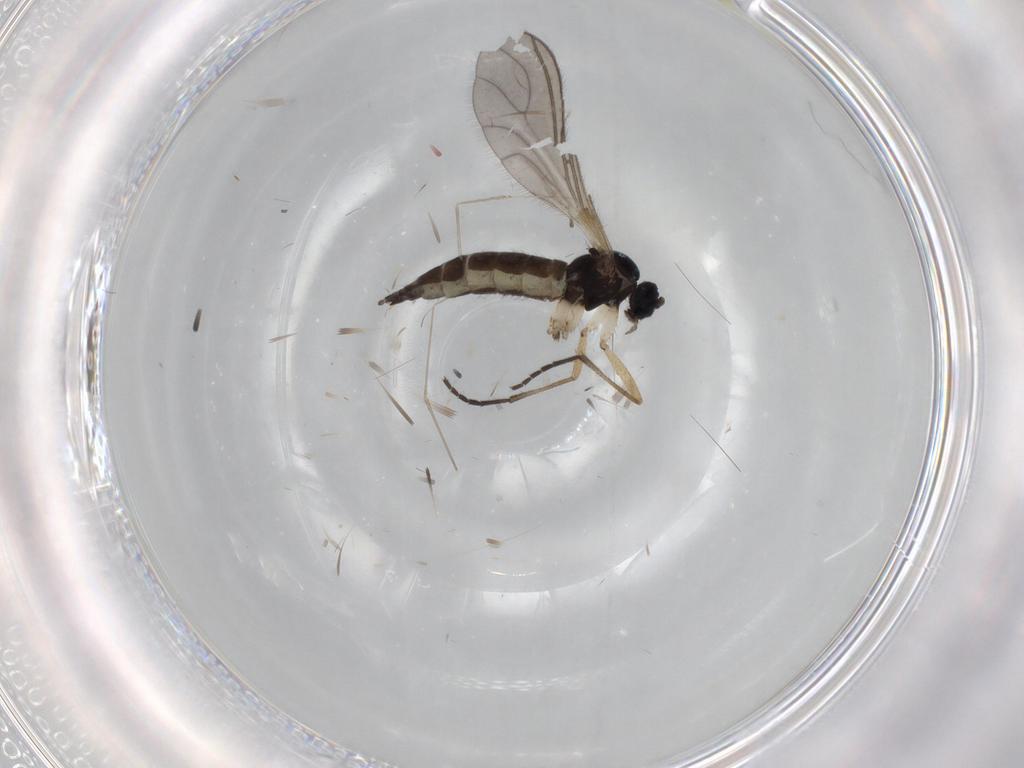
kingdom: Animalia
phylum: Arthropoda
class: Insecta
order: Diptera
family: Sciaridae
